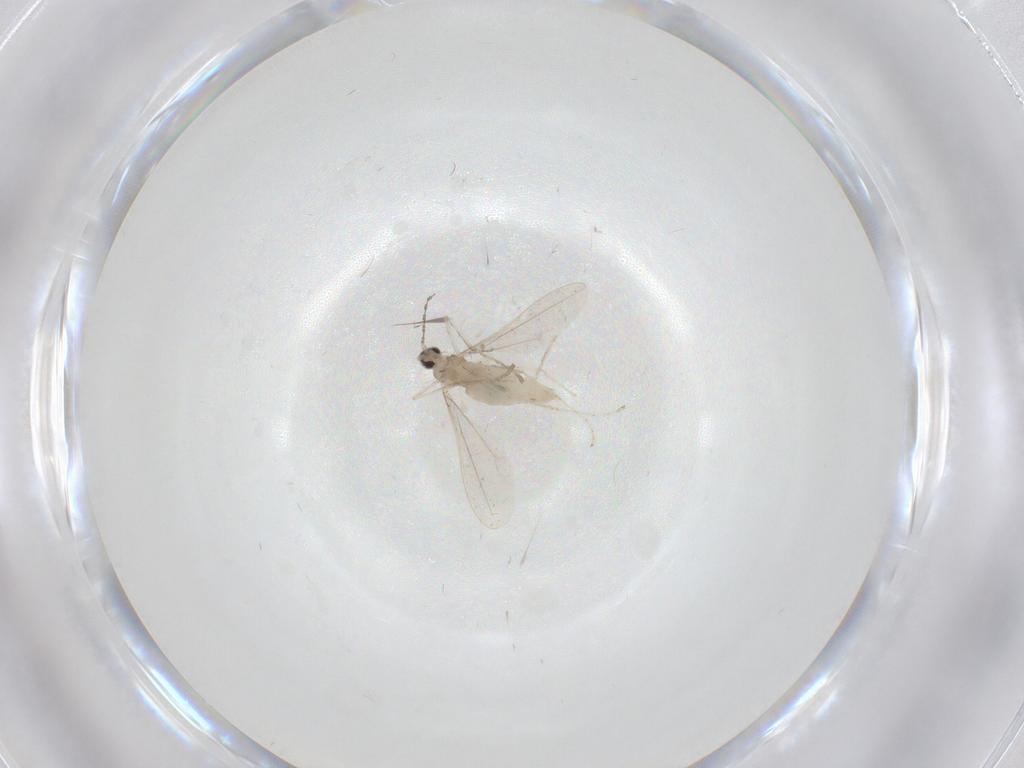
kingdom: Animalia
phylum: Arthropoda
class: Insecta
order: Diptera
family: Cecidomyiidae
